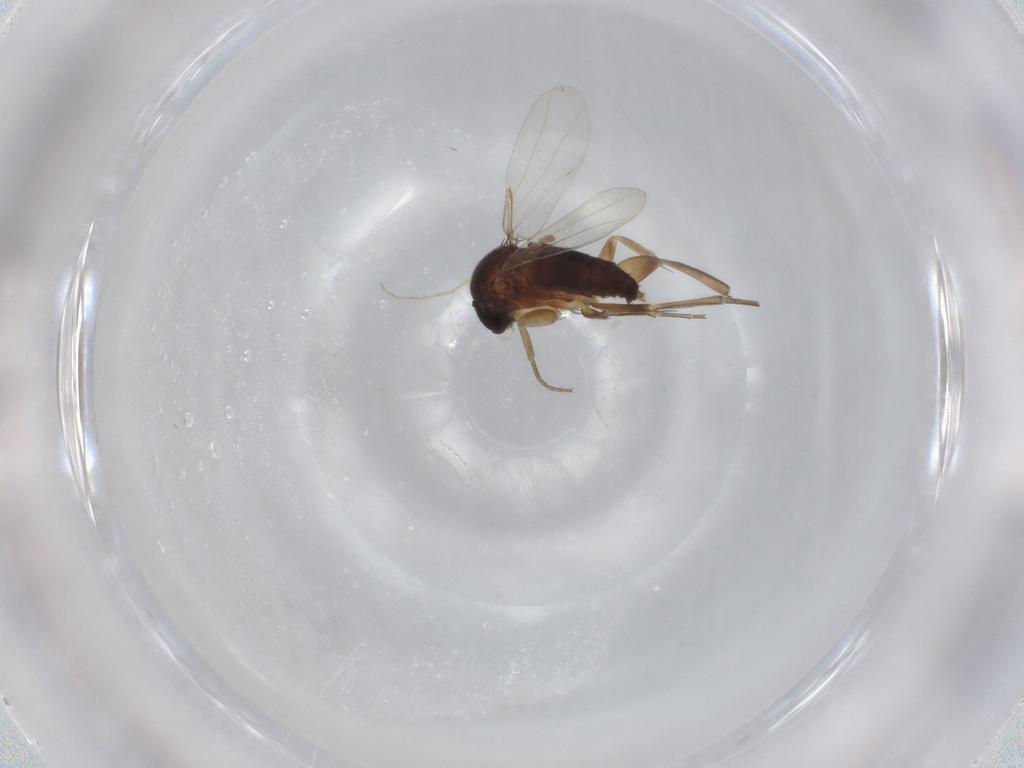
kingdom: Animalia
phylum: Arthropoda
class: Insecta
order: Diptera
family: Phoridae
